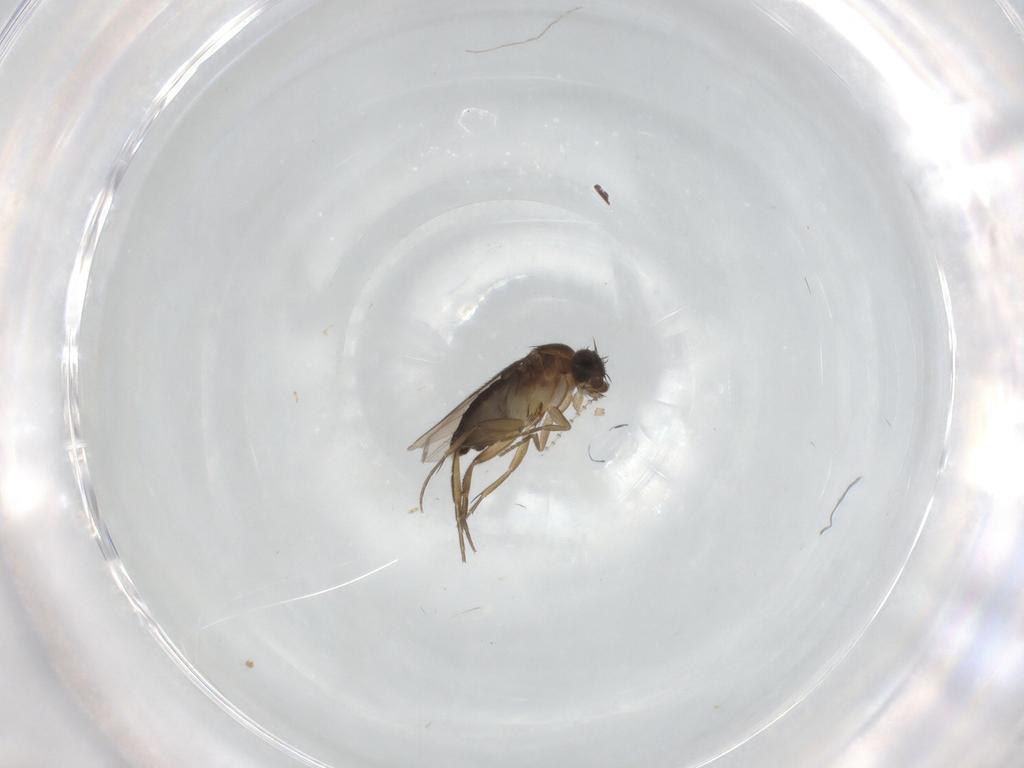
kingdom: Animalia
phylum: Arthropoda
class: Insecta
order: Diptera
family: Phoridae
